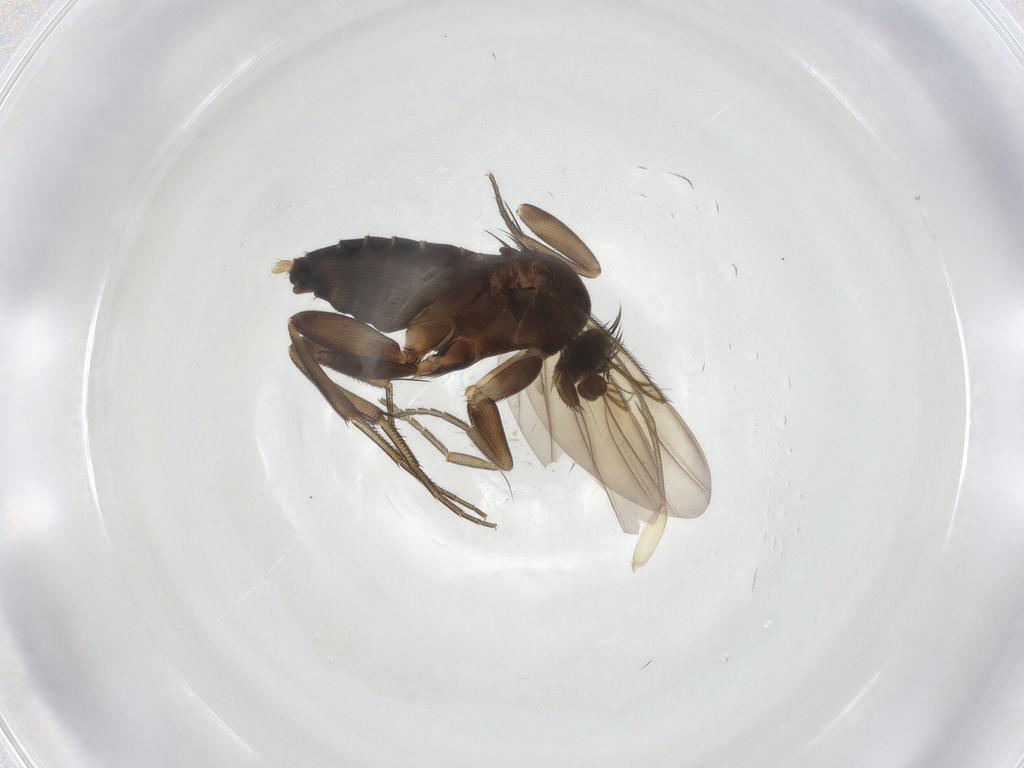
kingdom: Animalia
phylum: Arthropoda
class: Insecta
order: Diptera
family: Phoridae
